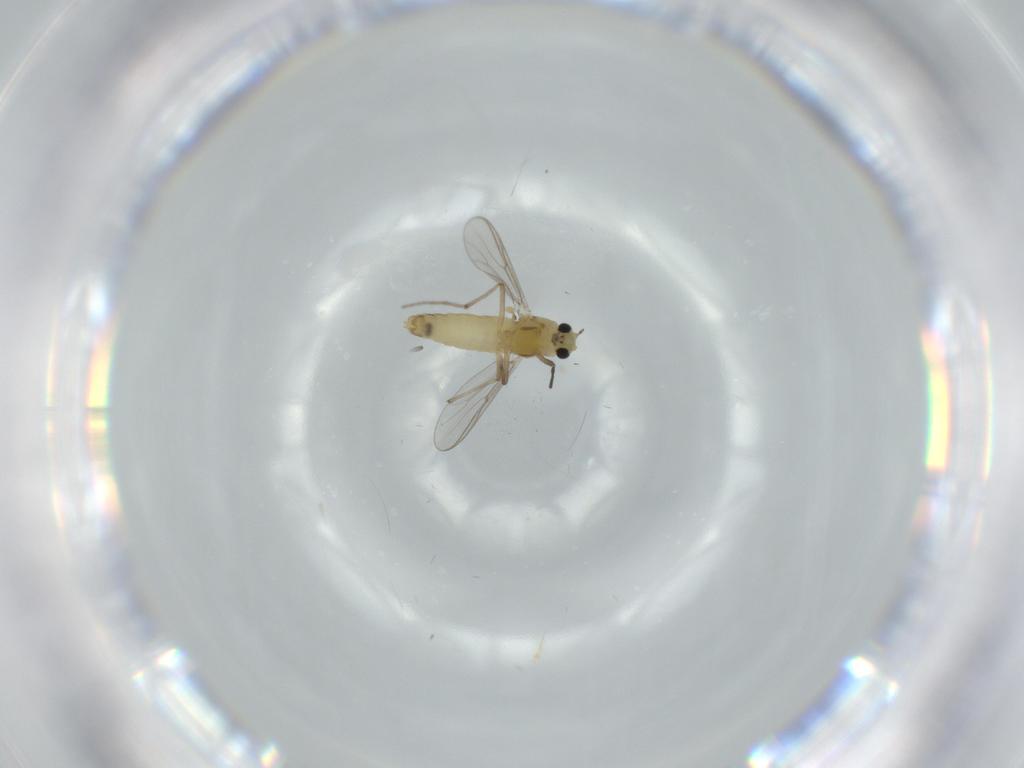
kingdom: Animalia
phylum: Arthropoda
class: Insecta
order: Diptera
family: Chironomidae
